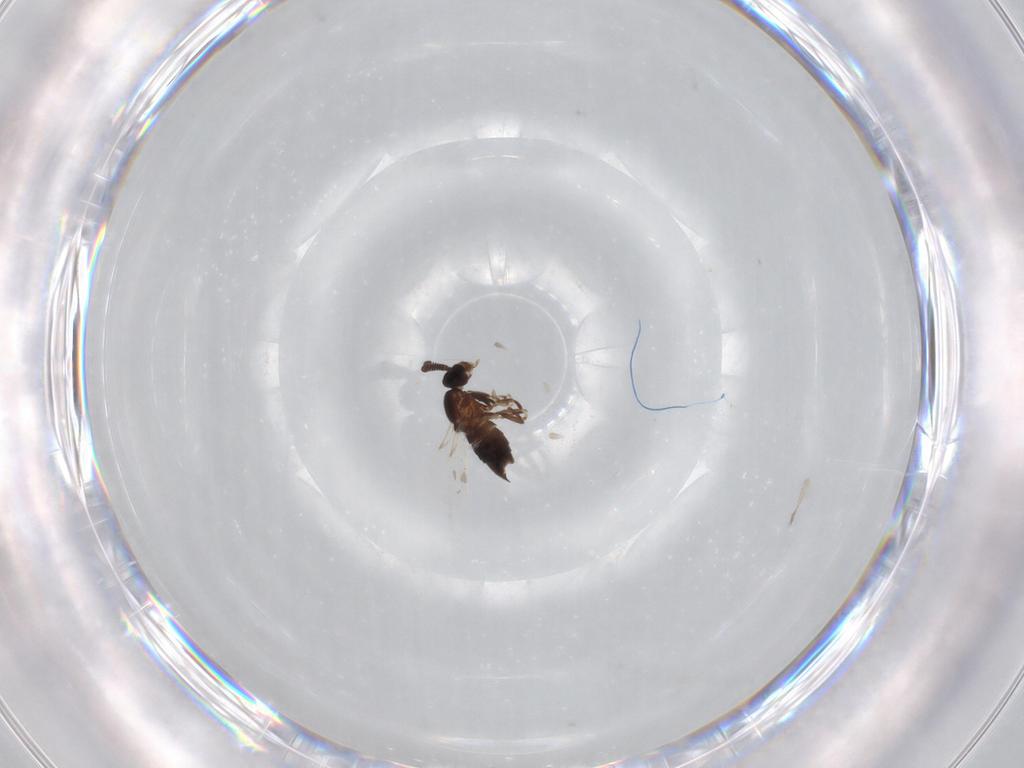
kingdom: Animalia
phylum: Arthropoda
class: Insecta
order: Diptera
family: Scatopsidae
